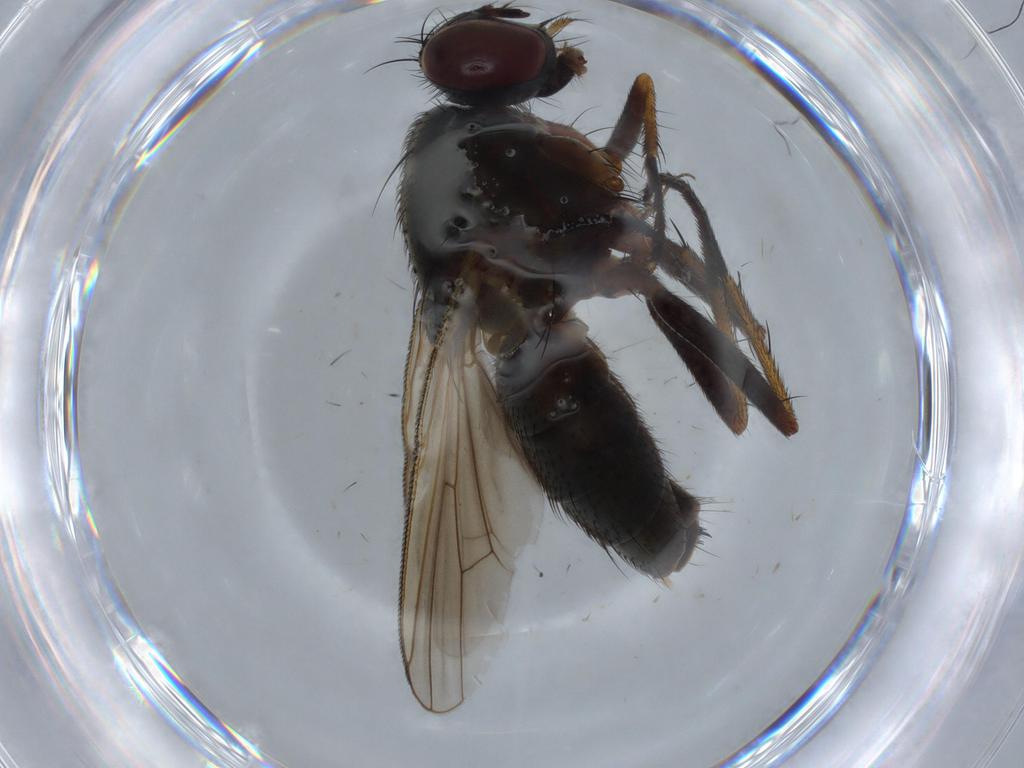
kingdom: Animalia
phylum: Arthropoda
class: Insecta
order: Diptera
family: Muscidae
